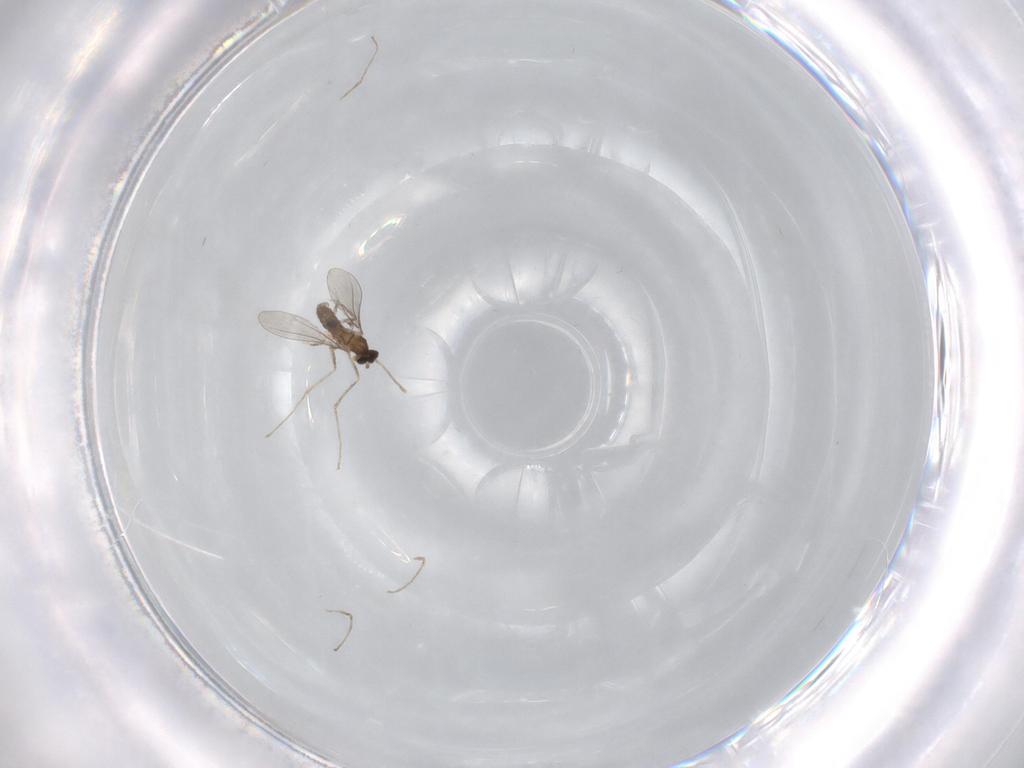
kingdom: Animalia
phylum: Arthropoda
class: Insecta
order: Diptera
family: Cecidomyiidae
